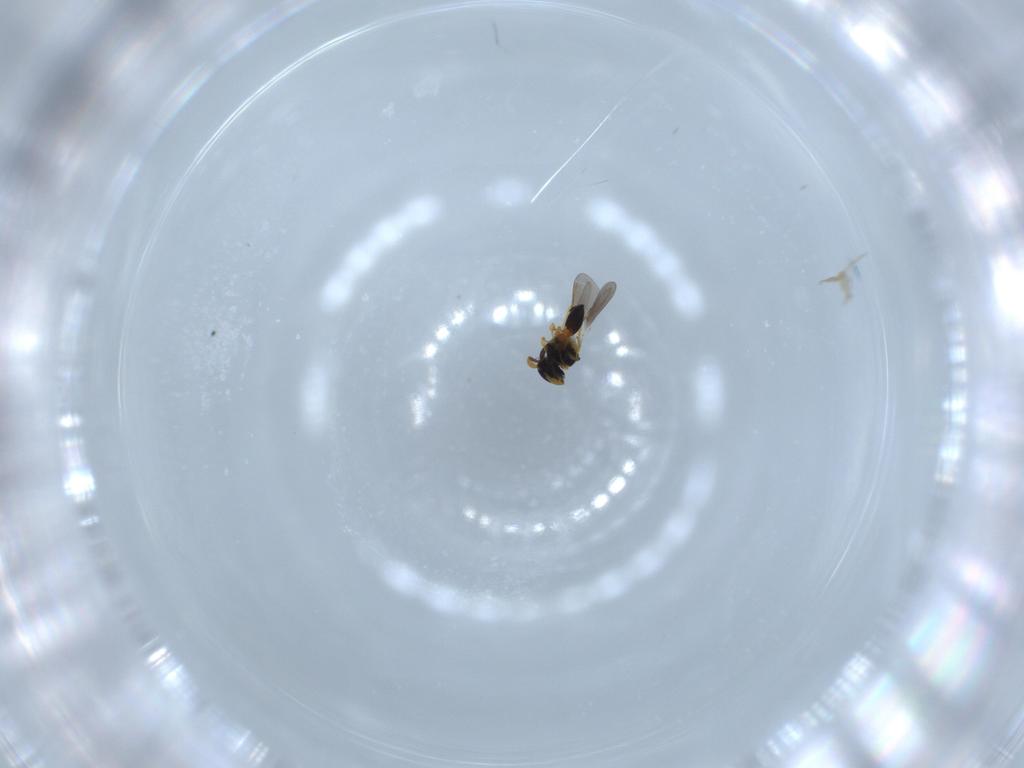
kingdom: Animalia
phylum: Arthropoda
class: Insecta
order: Hymenoptera
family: Platygastridae
